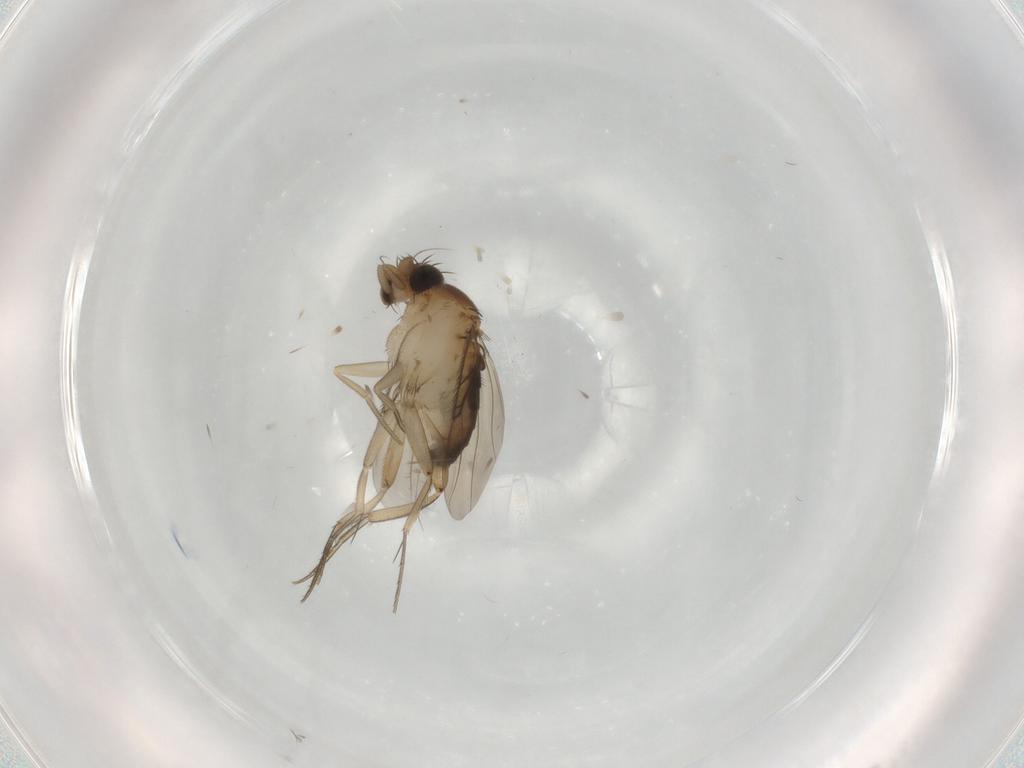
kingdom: Animalia
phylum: Arthropoda
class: Insecta
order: Diptera
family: Phoridae
